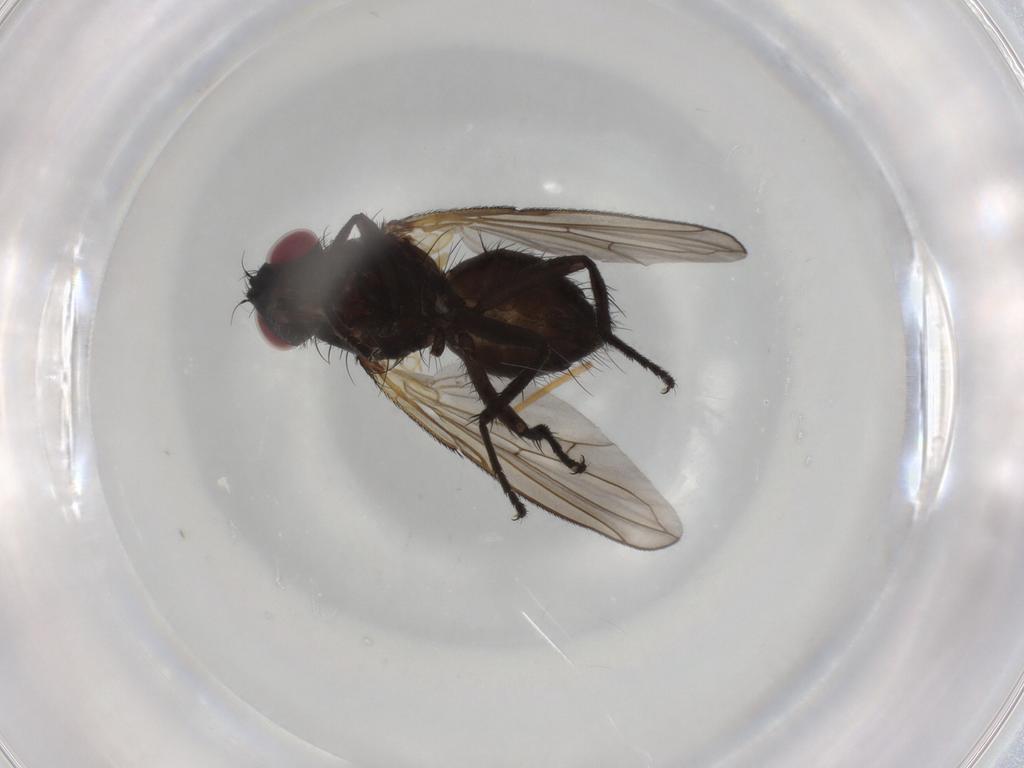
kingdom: Animalia
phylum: Arthropoda
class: Insecta
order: Diptera
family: Calliphoridae
